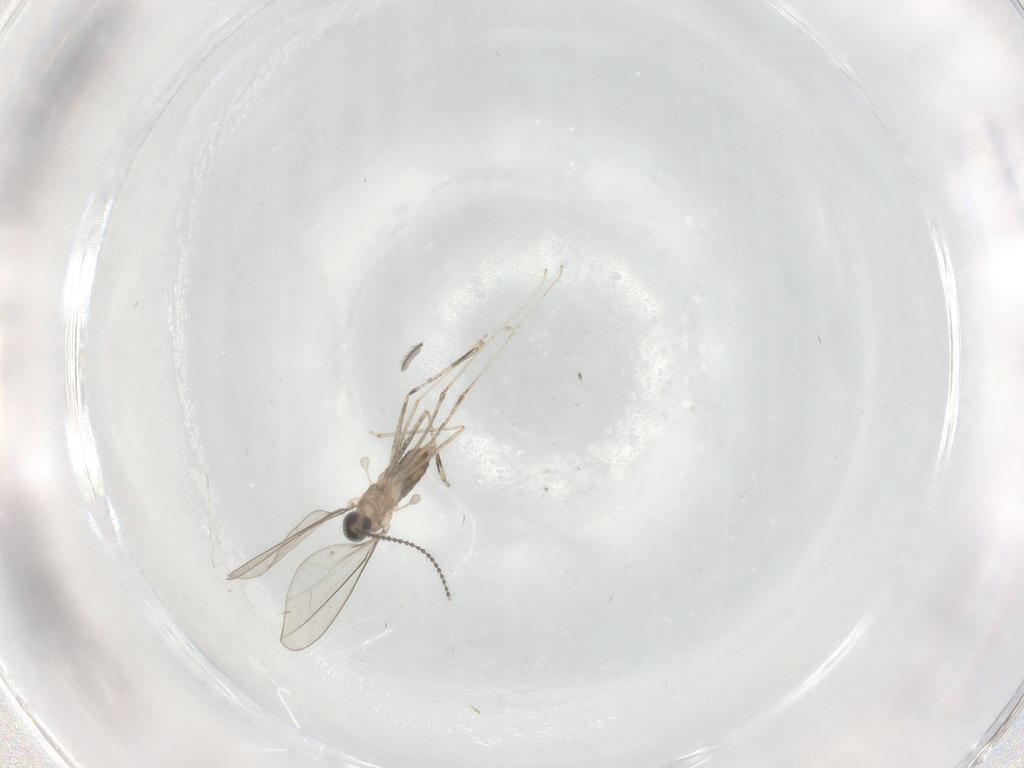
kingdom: Animalia
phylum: Arthropoda
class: Insecta
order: Diptera
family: Cecidomyiidae
